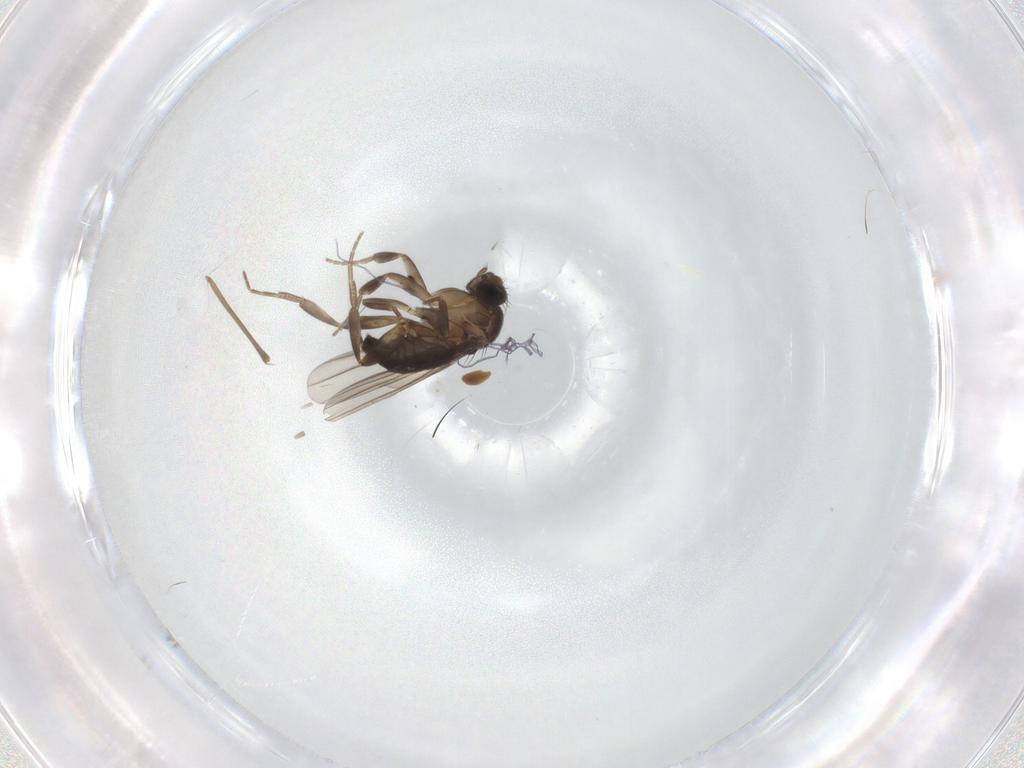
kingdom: Animalia
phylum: Arthropoda
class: Insecta
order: Diptera
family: Phoridae
